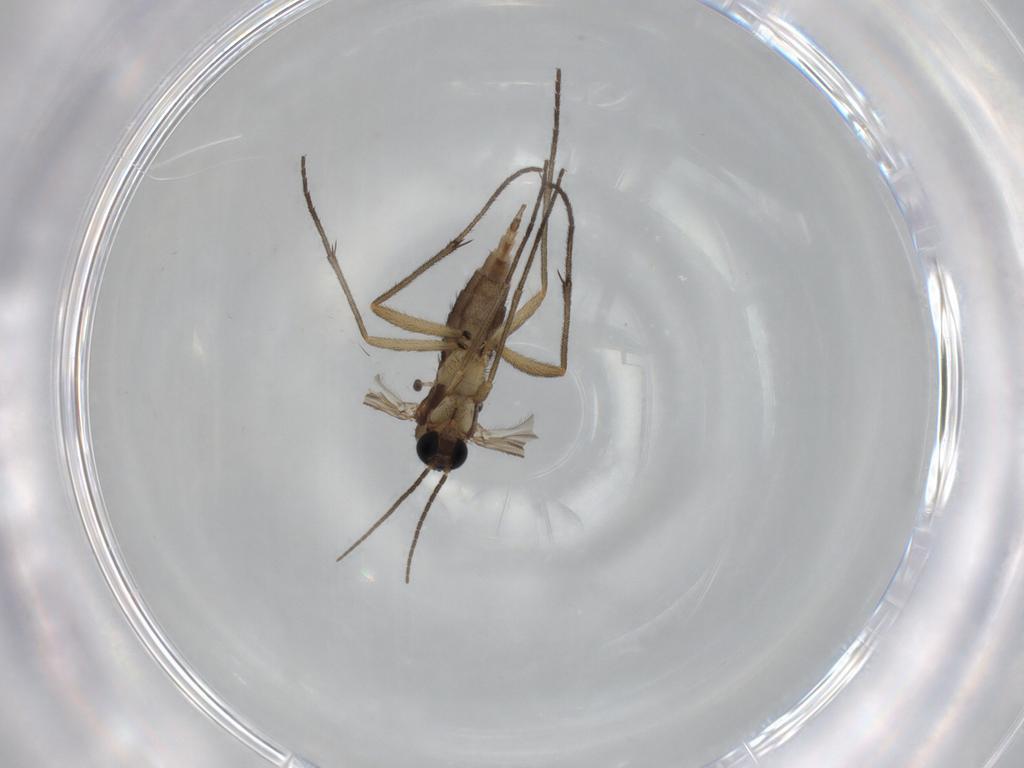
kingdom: Animalia
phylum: Arthropoda
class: Insecta
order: Diptera
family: Sciaridae
